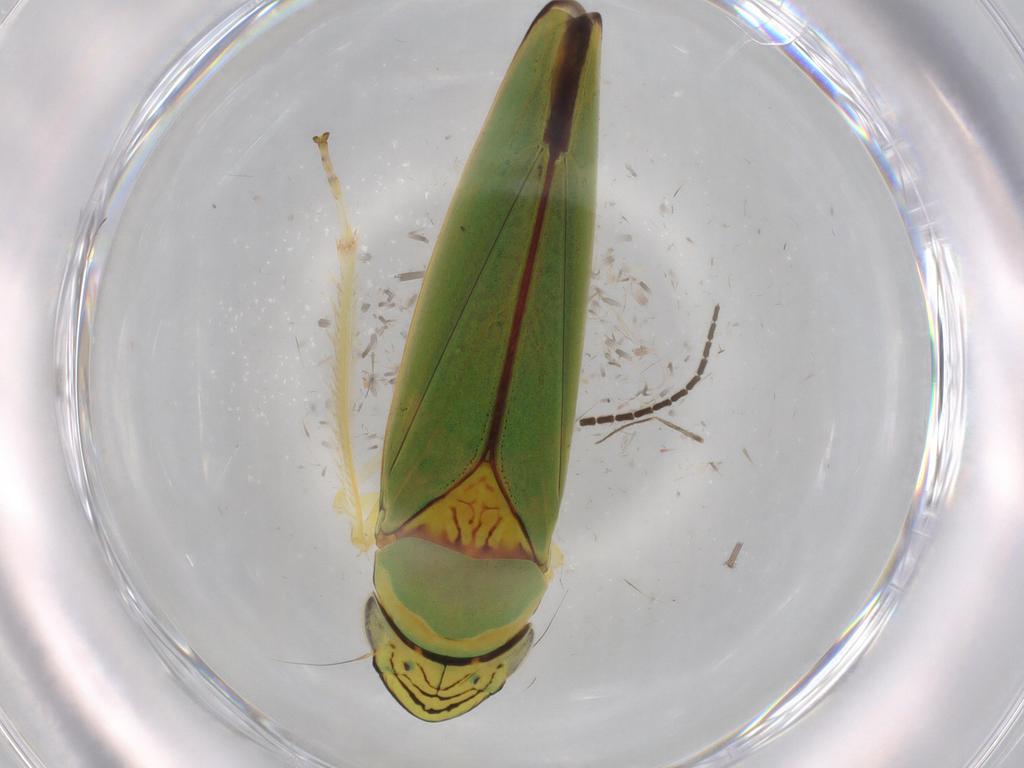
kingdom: Animalia
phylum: Arthropoda
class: Insecta
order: Hemiptera
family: Cicadellidae
